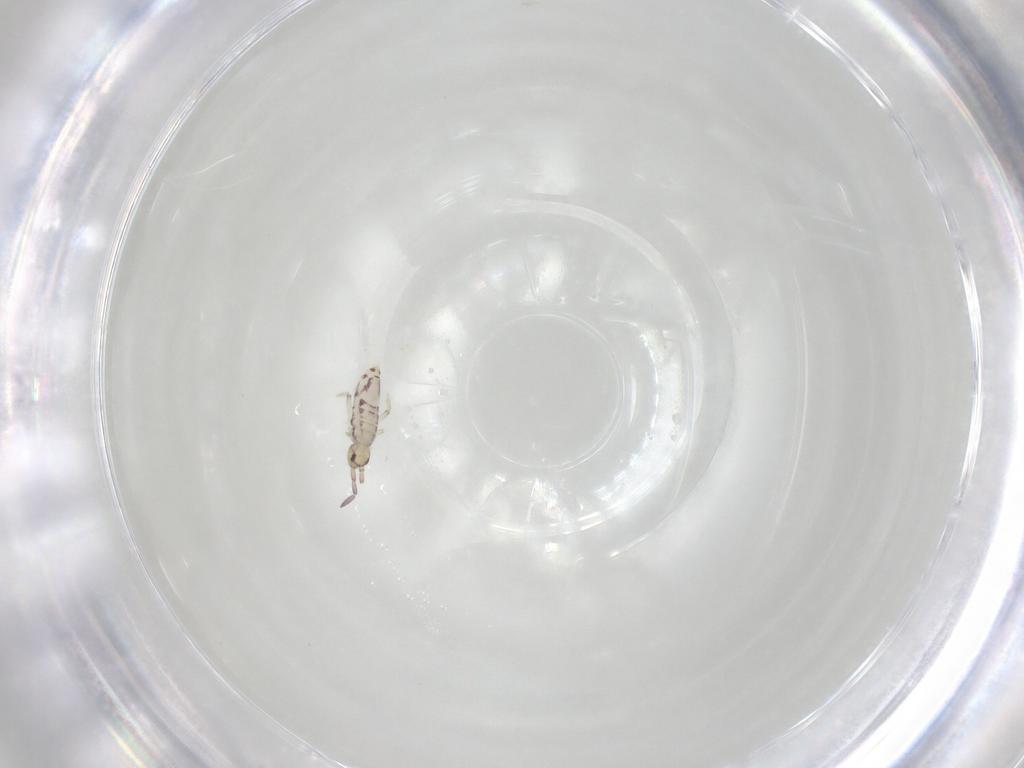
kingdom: Animalia
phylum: Arthropoda
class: Collembola
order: Entomobryomorpha
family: Entomobryidae
